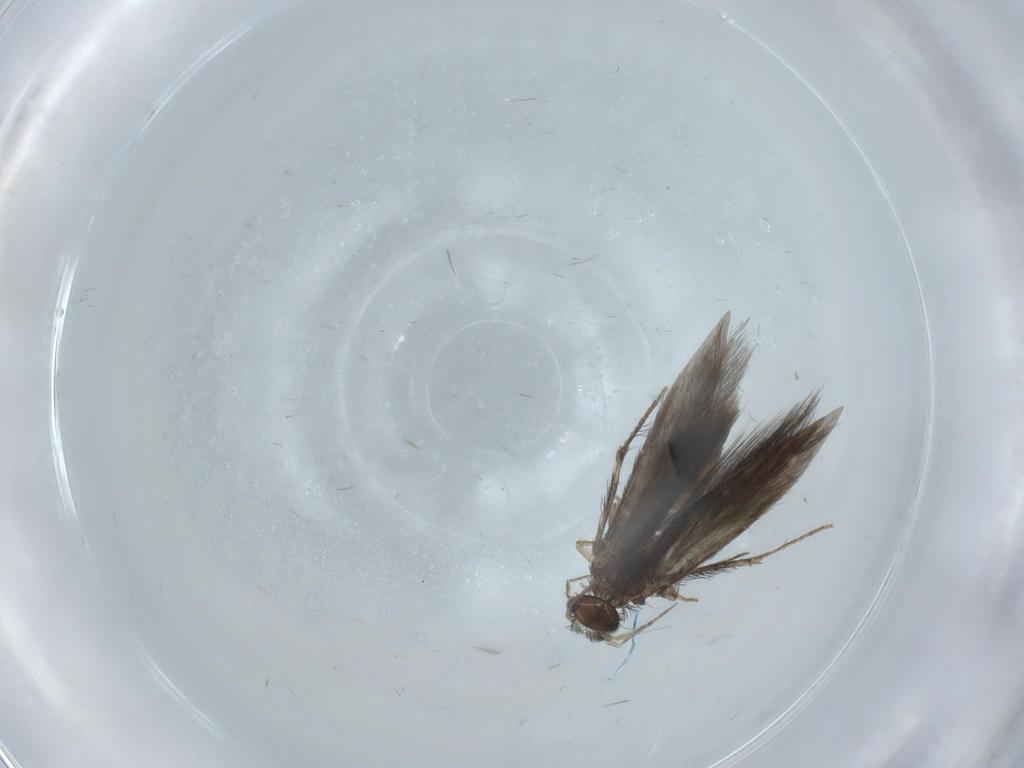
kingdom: Animalia
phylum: Arthropoda
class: Insecta
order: Trichoptera
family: Hydroptilidae
